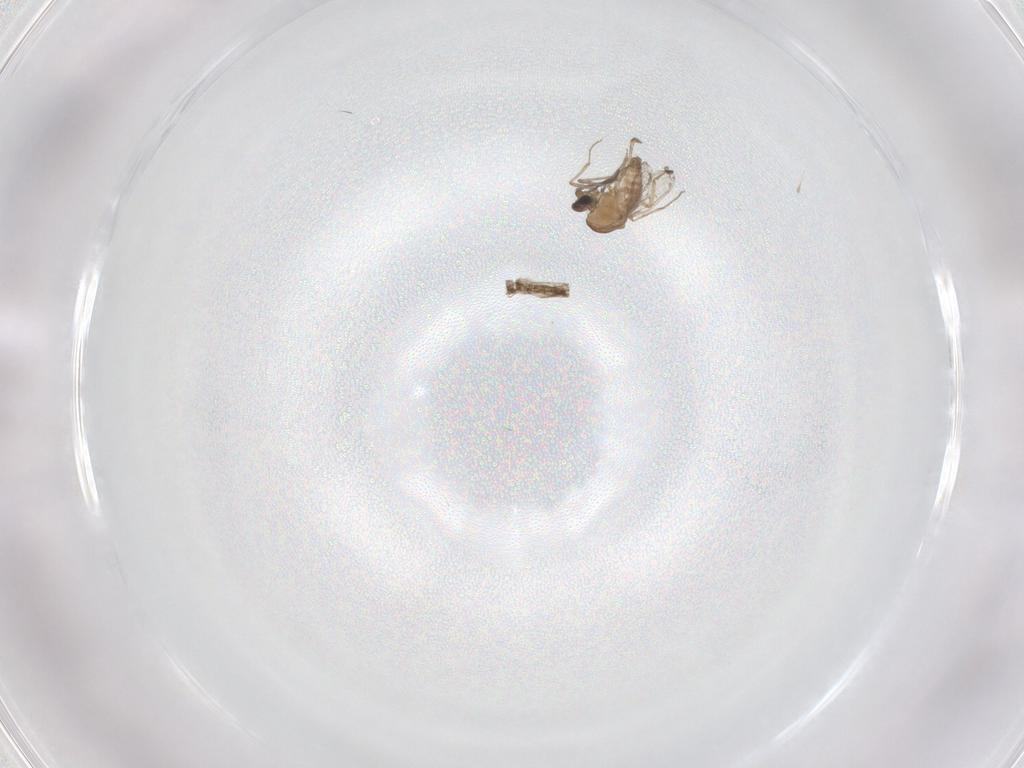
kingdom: Animalia
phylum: Arthropoda
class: Insecta
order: Diptera
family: Ceratopogonidae
